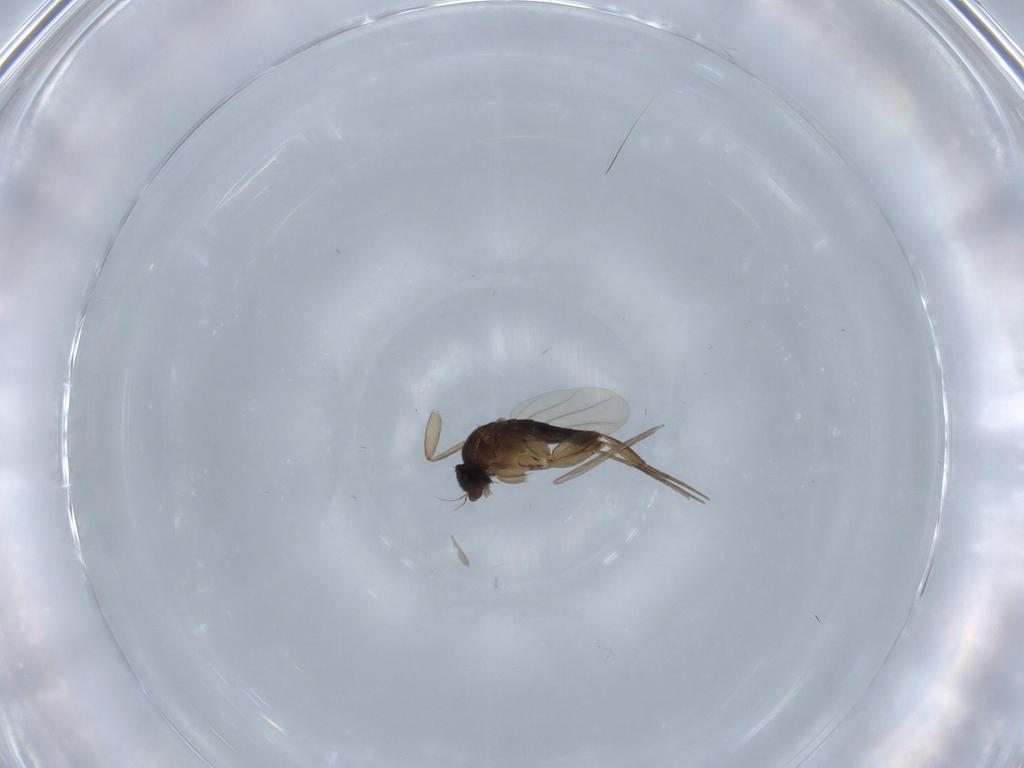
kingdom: Animalia
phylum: Arthropoda
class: Insecta
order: Diptera
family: Phoridae
